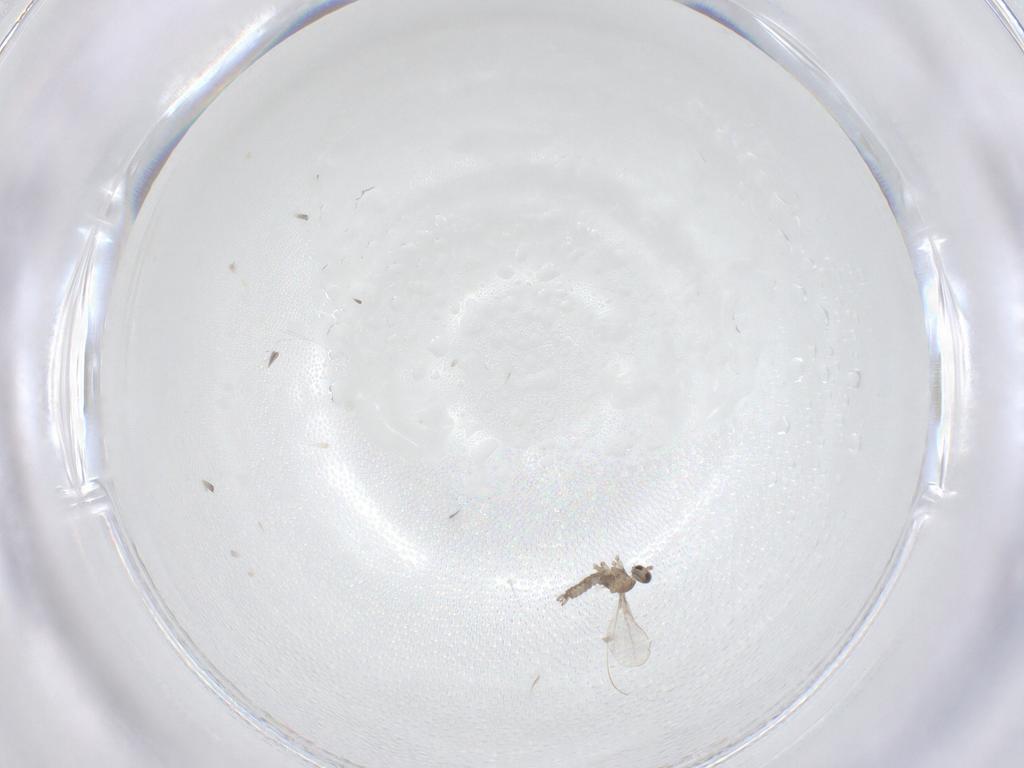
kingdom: Animalia
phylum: Arthropoda
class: Insecta
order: Diptera
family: Cecidomyiidae
